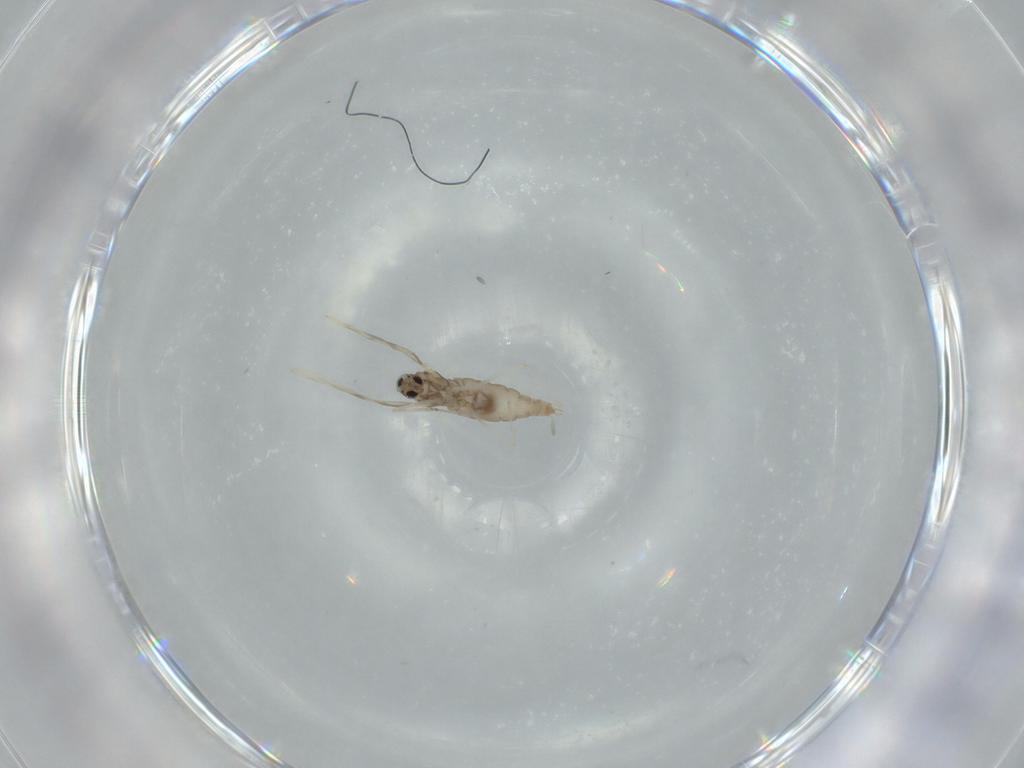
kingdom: Animalia
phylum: Arthropoda
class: Insecta
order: Diptera
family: Cecidomyiidae
